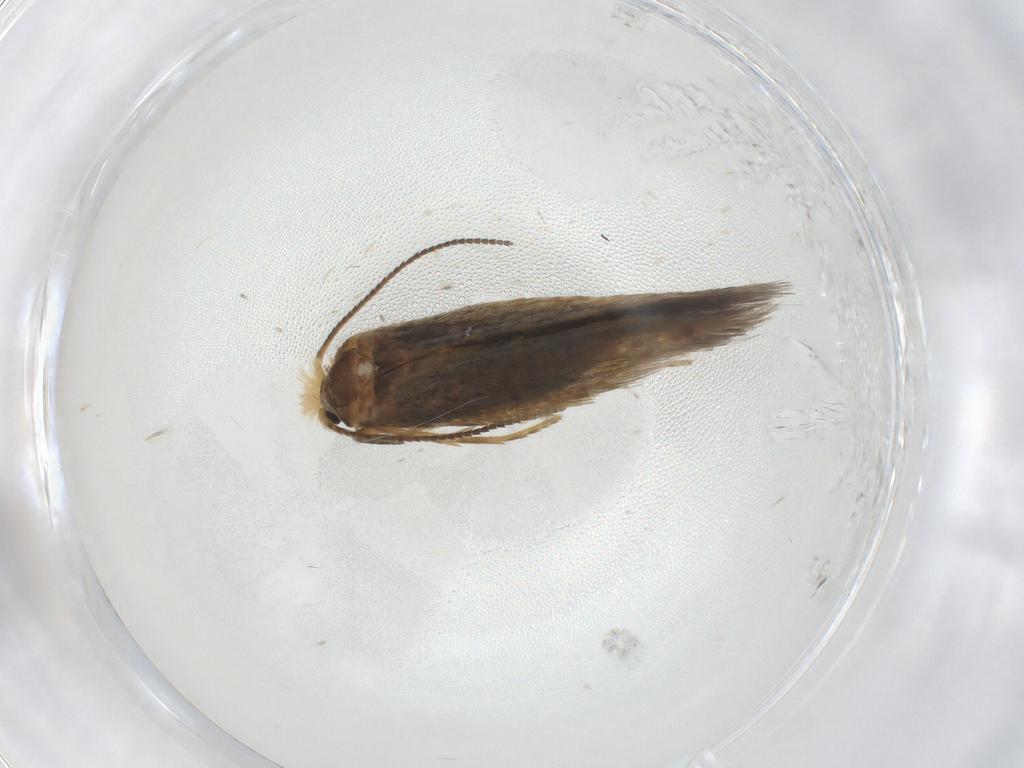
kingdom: Animalia
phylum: Arthropoda
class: Insecta
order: Lepidoptera
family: Nepticulidae
